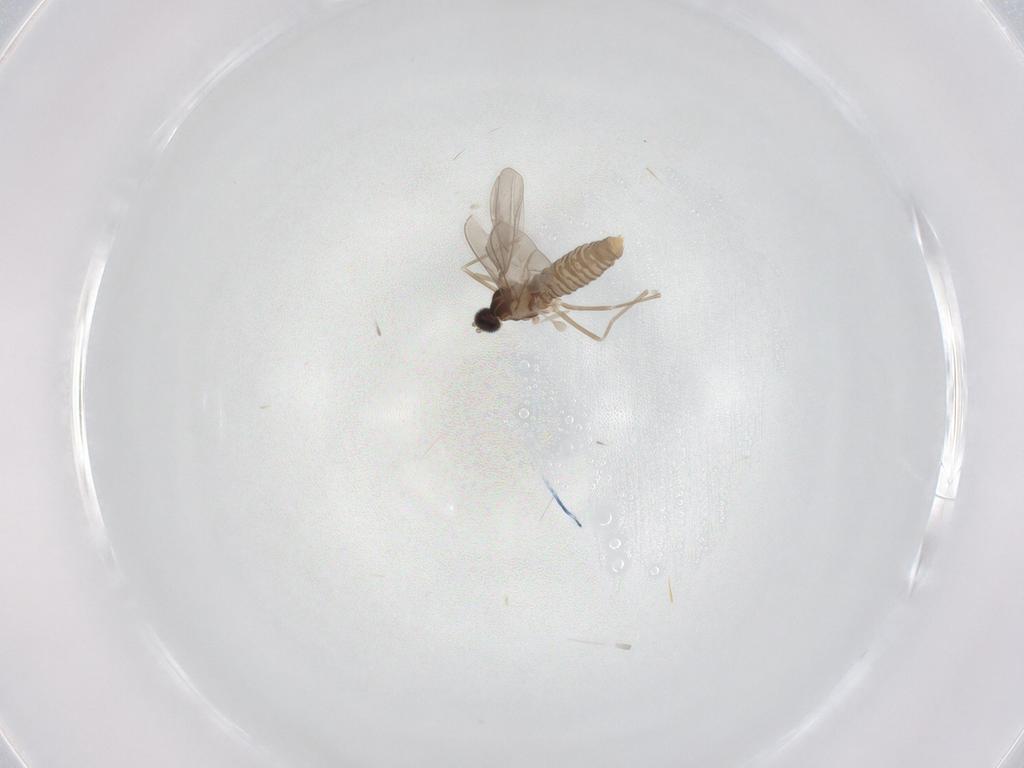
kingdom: Animalia
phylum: Arthropoda
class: Insecta
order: Diptera
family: Cecidomyiidae
